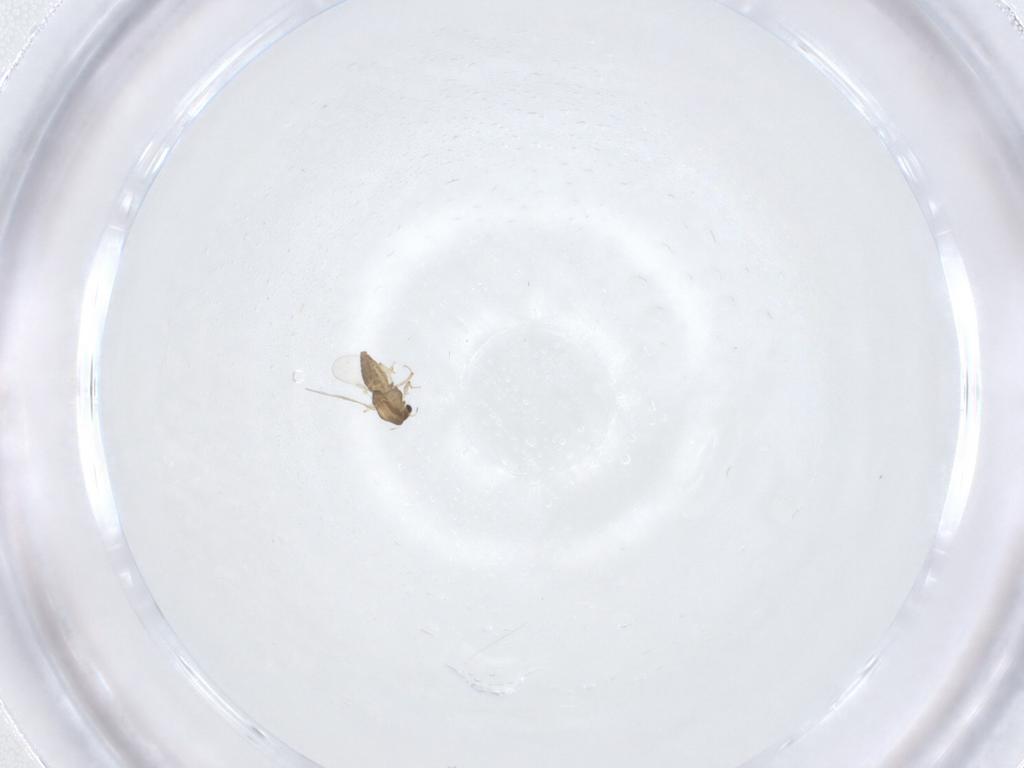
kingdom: Animalia
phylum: Arthropoda
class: Insecta
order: Diptera
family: Chironomidae
